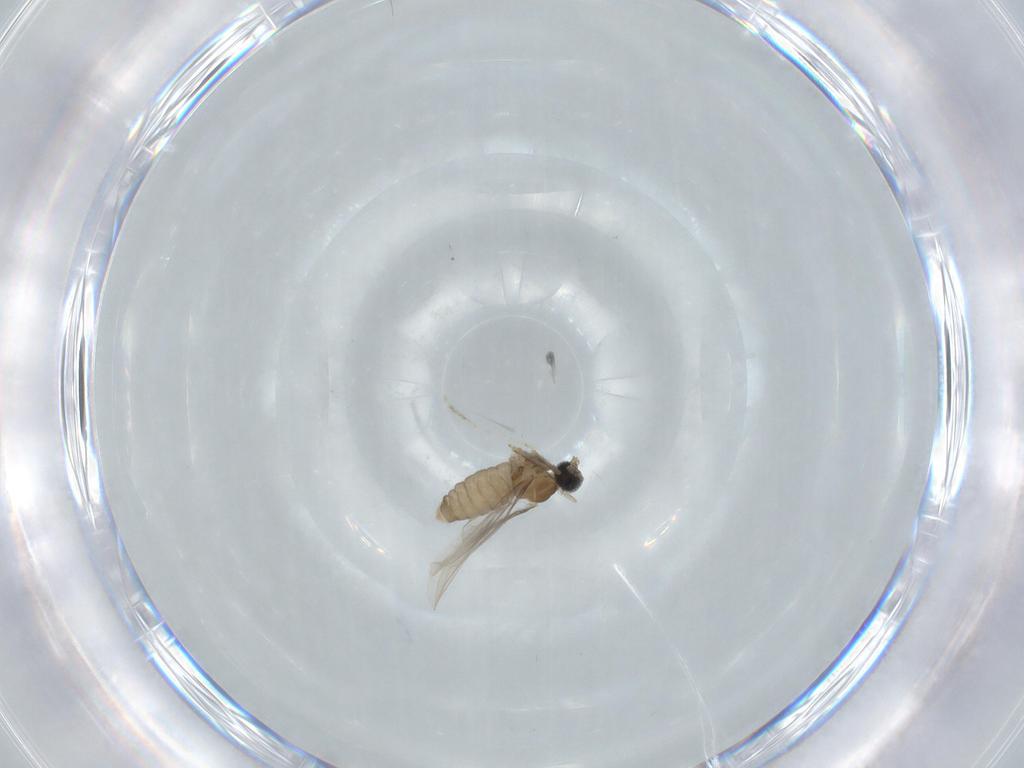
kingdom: Animalia
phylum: Arthropoda
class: Insecta
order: Diptera
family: Cecidomyiidae
